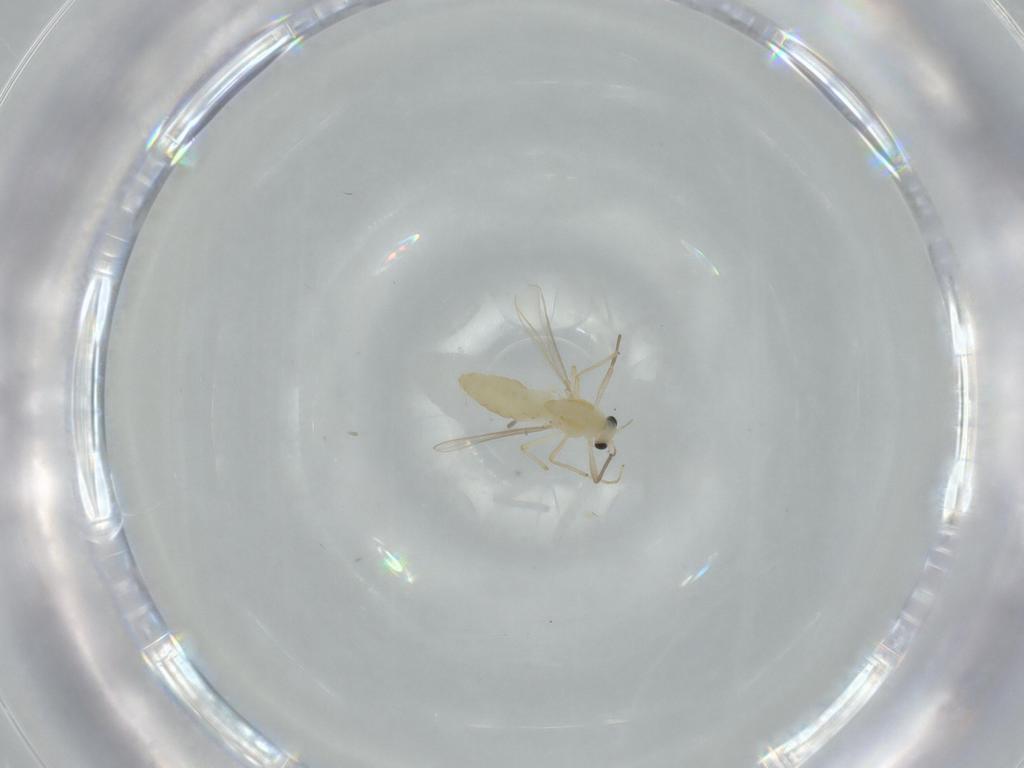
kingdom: Animalia
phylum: Arthropoda
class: Insecta
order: Diptera
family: Chironomidae
